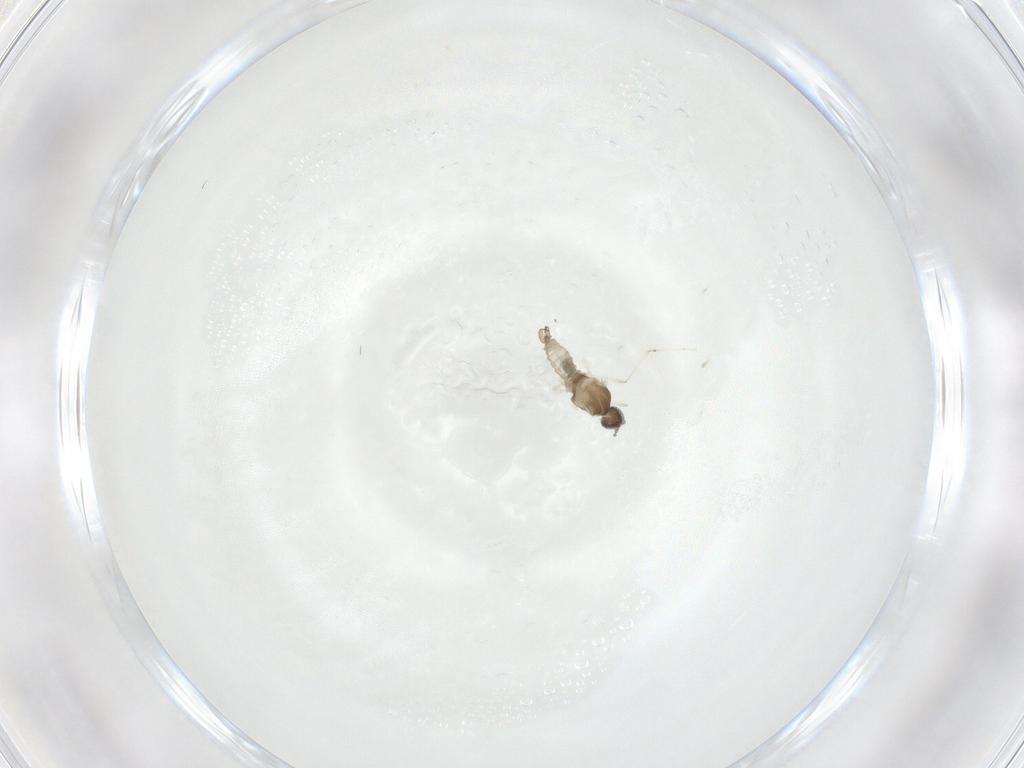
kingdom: Animalia
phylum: Arthropoda
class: Insecta
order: Diptera
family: Sciaridae
